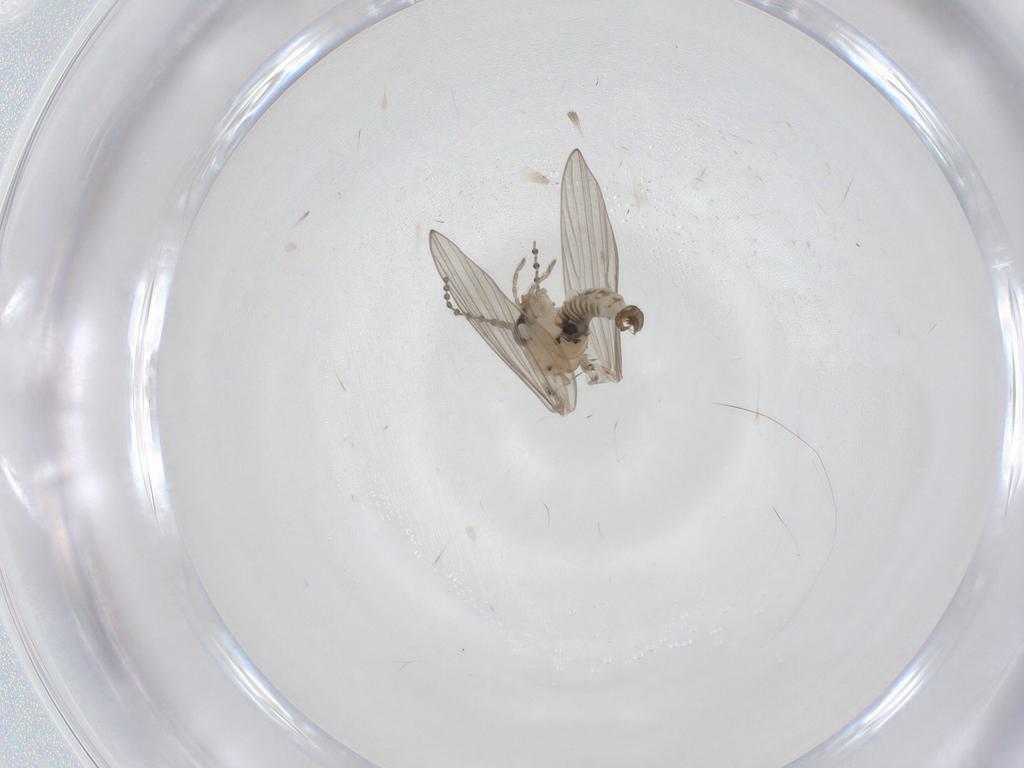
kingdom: Animalia
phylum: Arthropoda
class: Insecta
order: Diptera
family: Psychodidae
